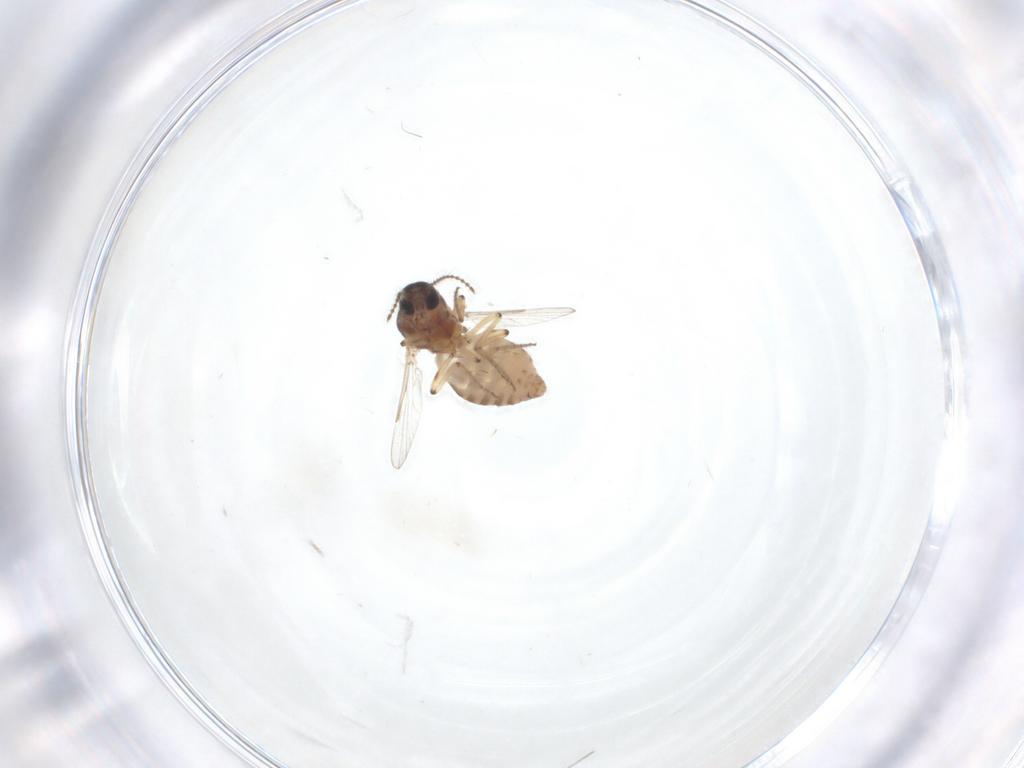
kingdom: Animalia
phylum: Arthropoda
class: Insecta
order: Diptera
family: Ceratopogonidae
